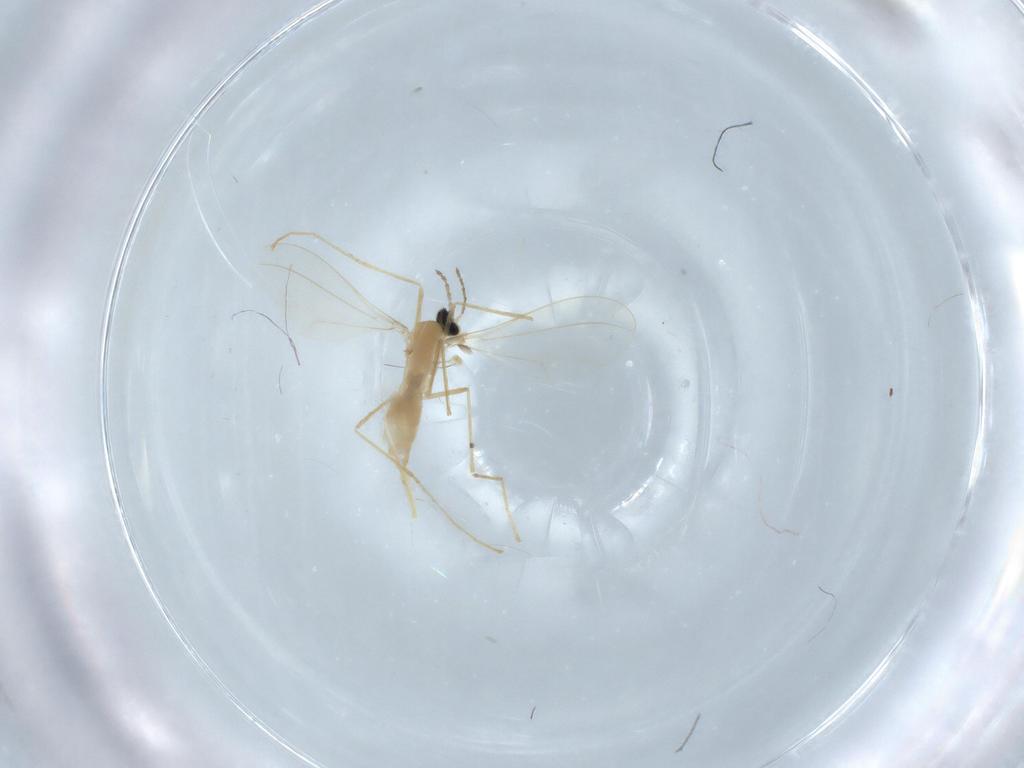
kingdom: Animalia
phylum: Arthropoda
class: Insecta
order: Diptera
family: Cecidomyiidae
